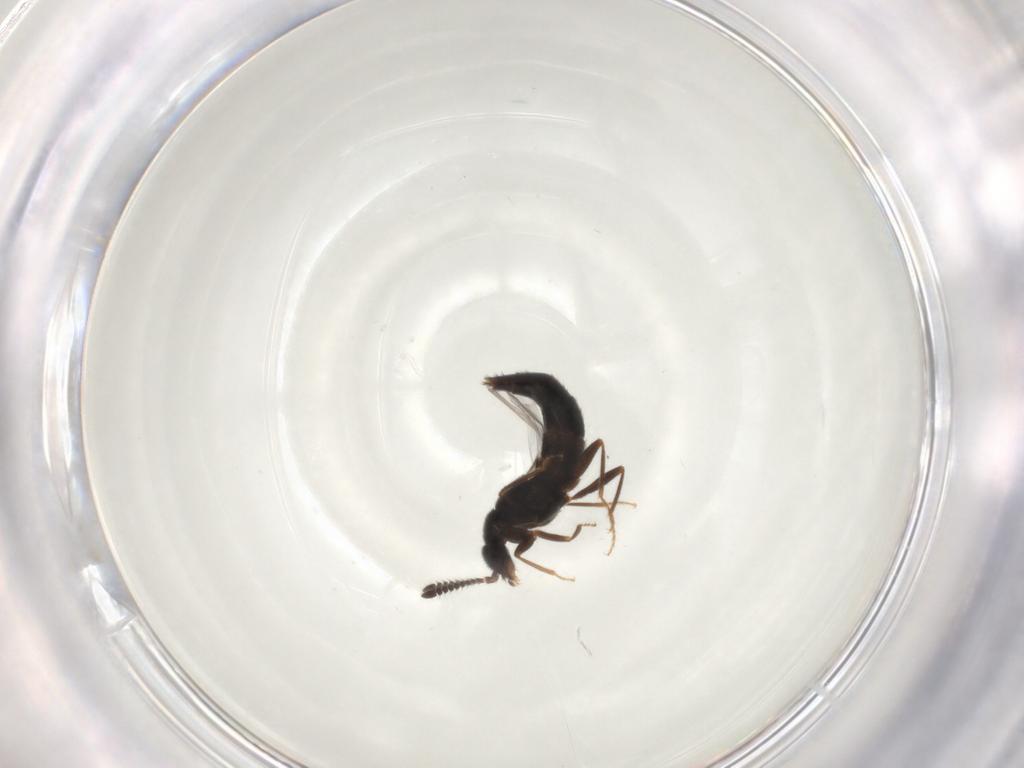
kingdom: Animalia
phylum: Arthropoda
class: Insecta
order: Coleoptera
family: Staphylinidae
